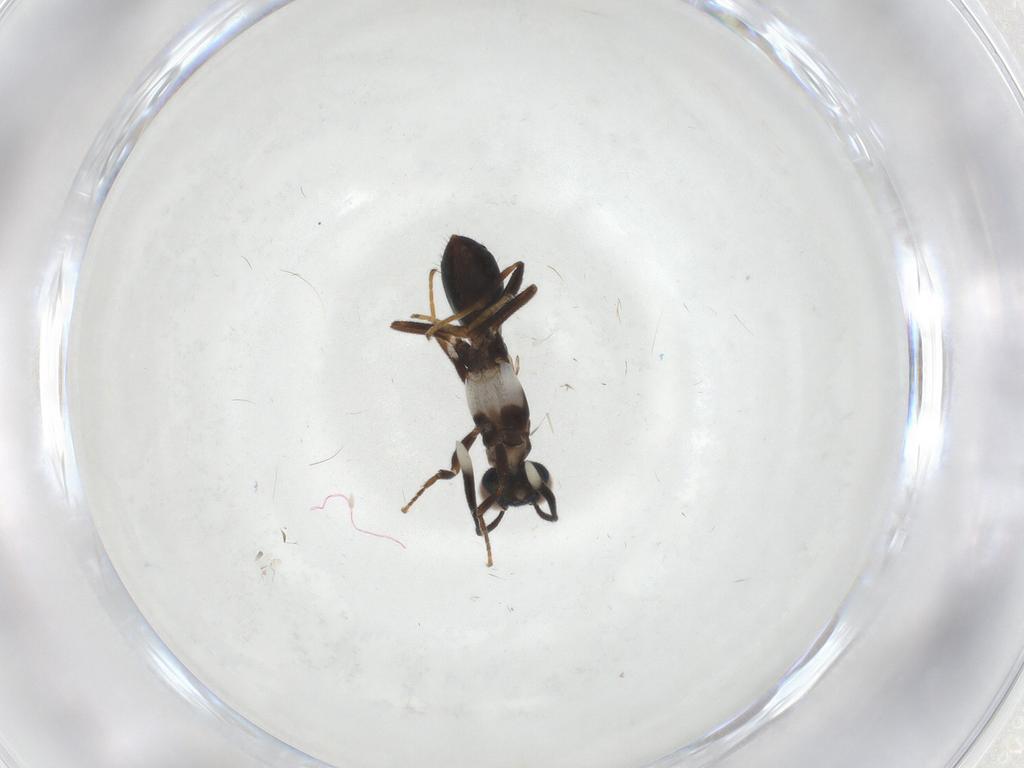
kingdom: Animalia
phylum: Arthropoda
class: Insecta
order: Hymenoptera
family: Eupelmidae
